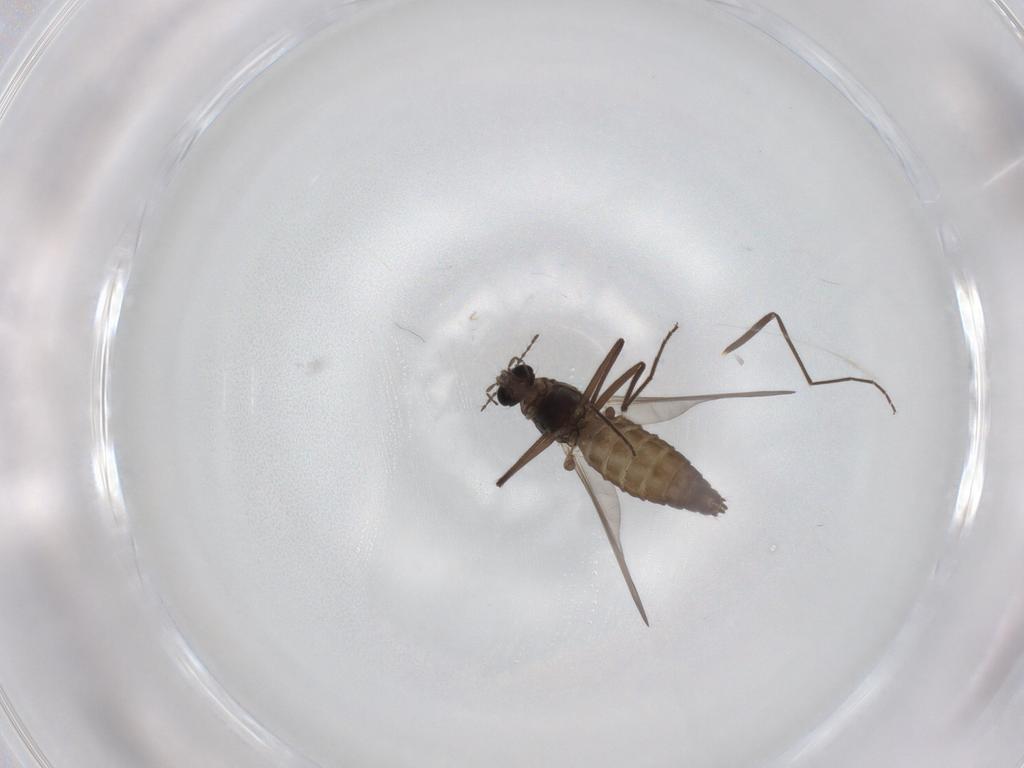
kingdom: Animalia
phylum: Arthropoda
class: Insecta
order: Diptera
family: Chironomidae
